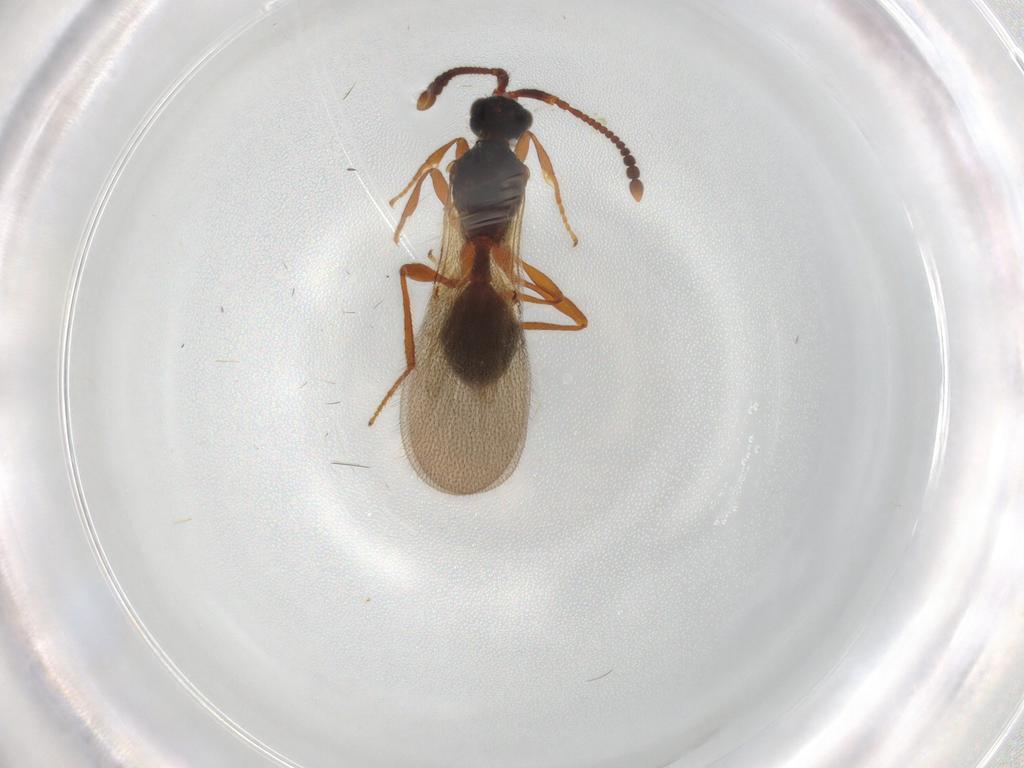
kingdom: Animalia
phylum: Arthropoda
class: Insecta
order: Hymenoptera
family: Diapriidae
